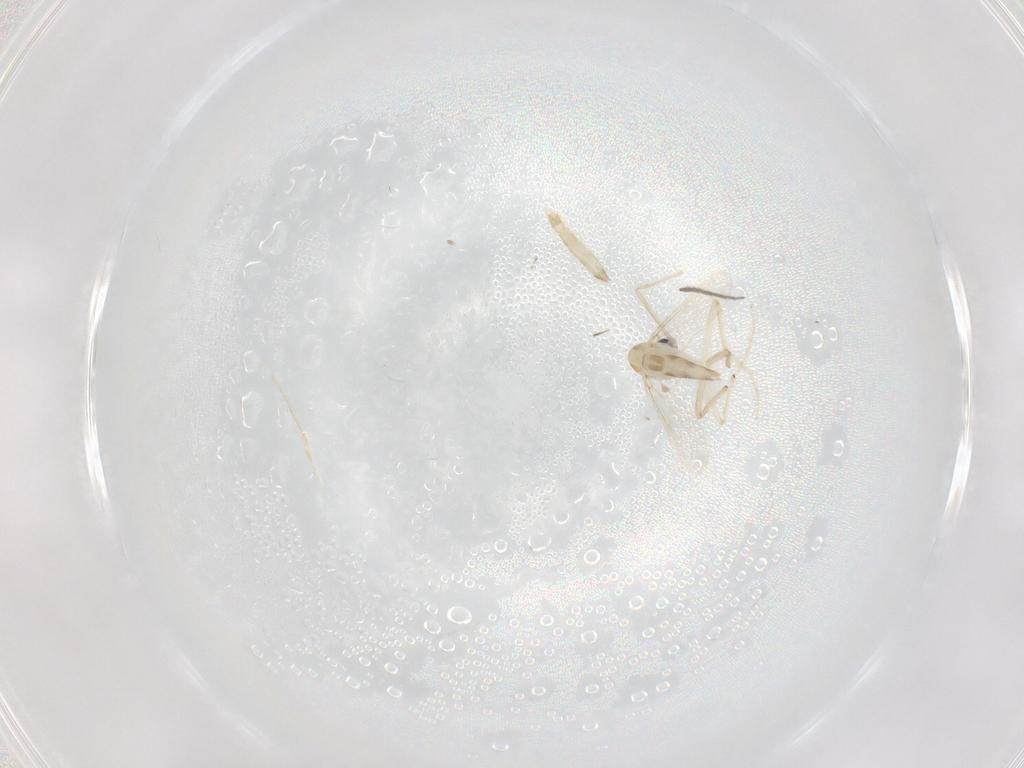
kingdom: Animalia
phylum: Arthropoda
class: Insecta
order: Diptera
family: Chironomidae
